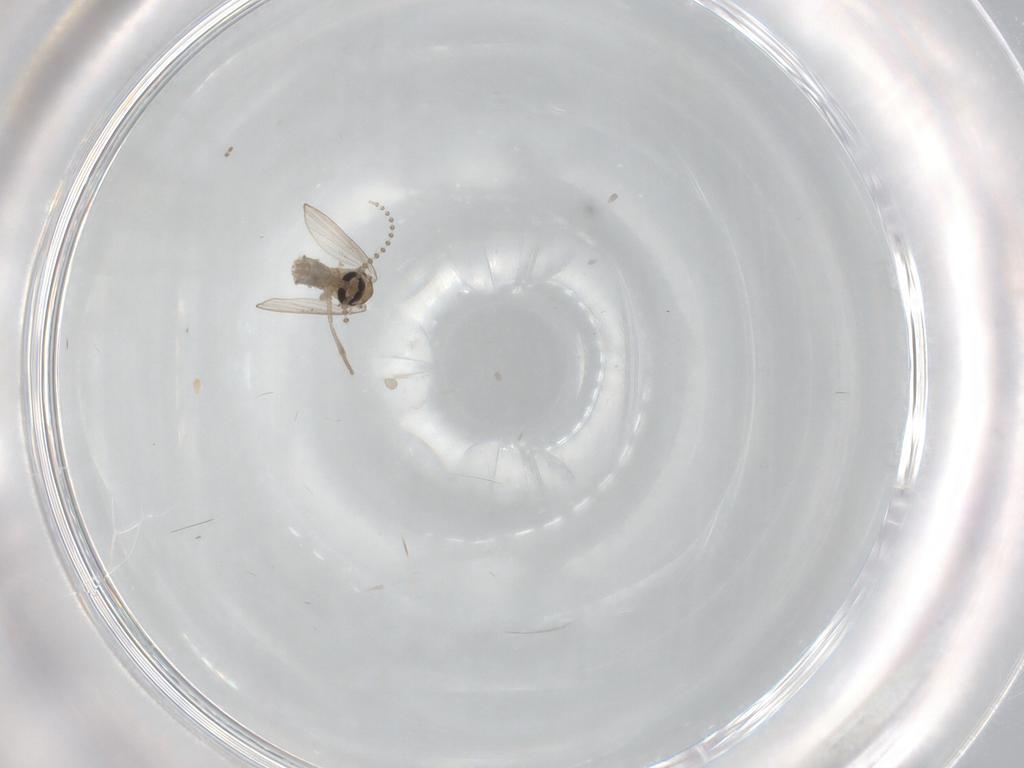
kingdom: Animalia
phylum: Arthropoda
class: Insecta
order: Diptera
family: Psychodidae
